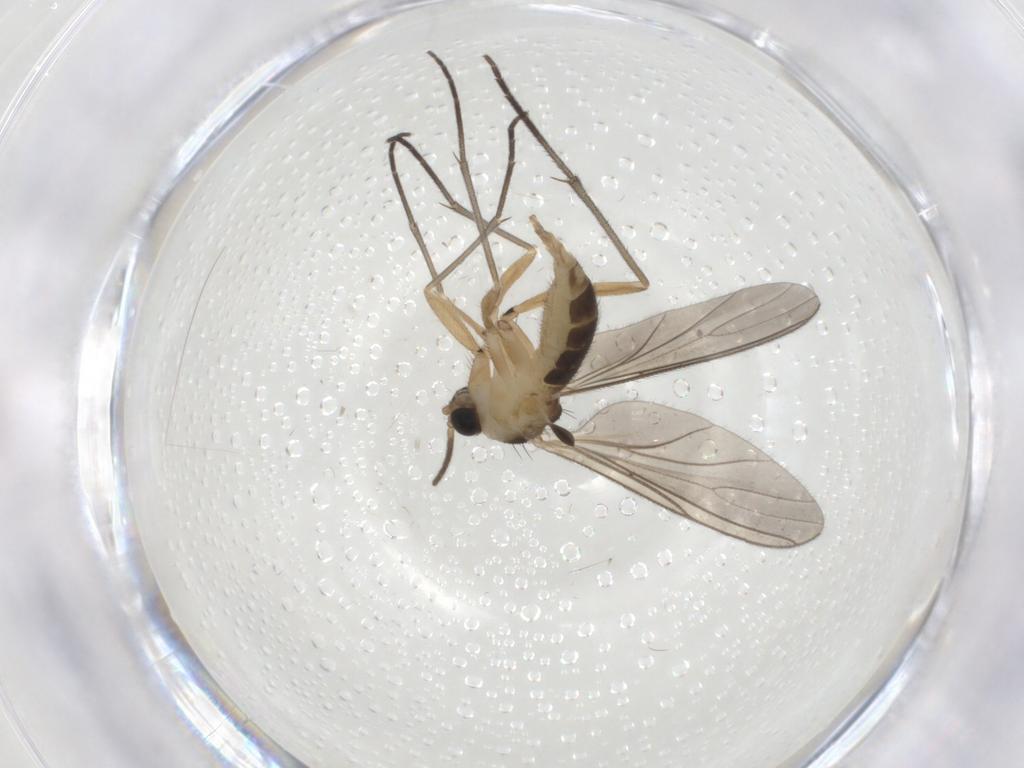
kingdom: Animalia
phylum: Arthropoda
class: Insecta
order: Diptera
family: Sciaridae
